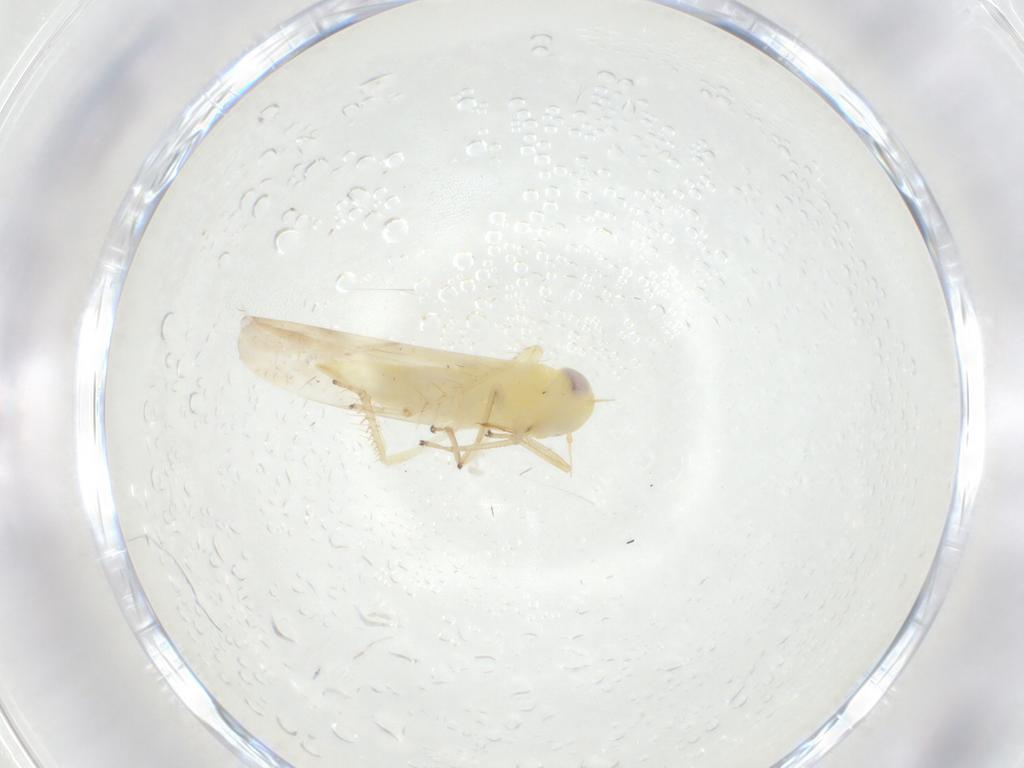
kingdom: Animalia
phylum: Arthropoda
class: Insecta
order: Hemiptera
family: Cicadellidae
